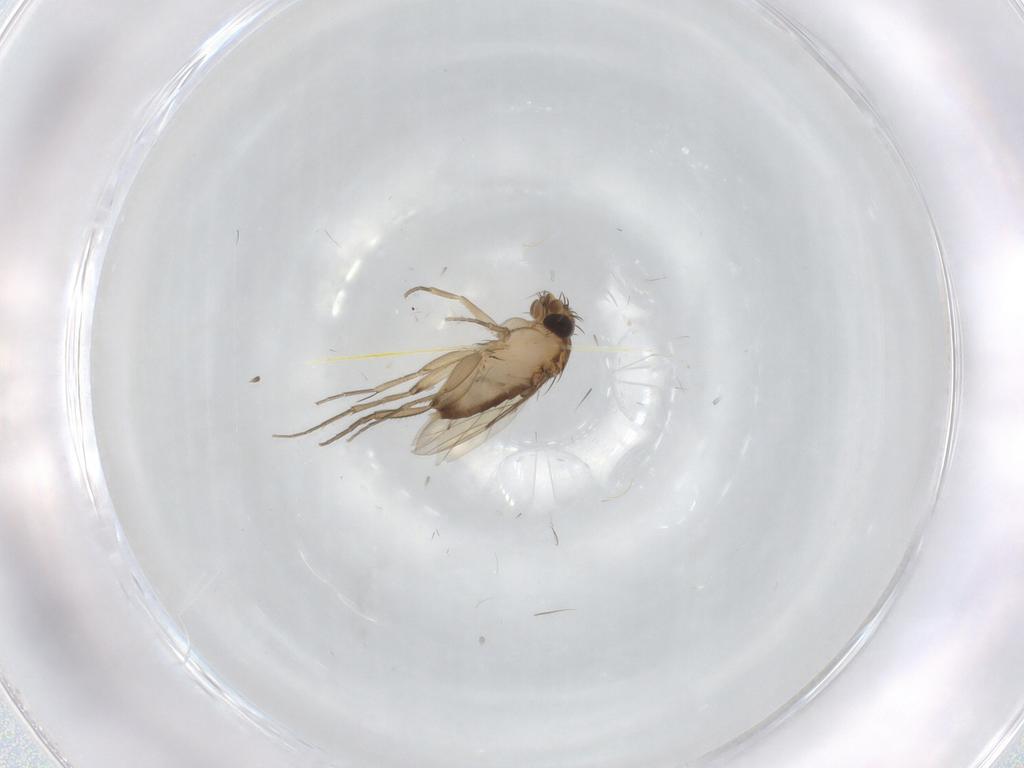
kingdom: Animalia
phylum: Arthropoda
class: Insecta
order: Diptera
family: Phoridae
